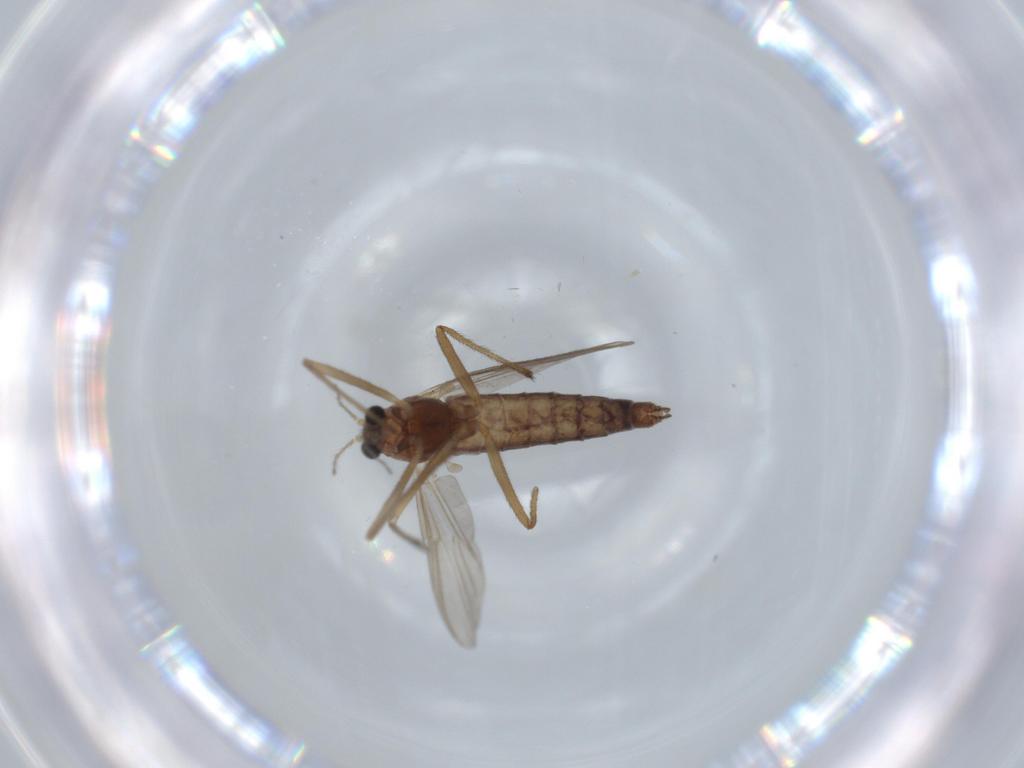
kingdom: Animalia
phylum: Arthropoda
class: Insecta
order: Diptera
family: Chironomidae
